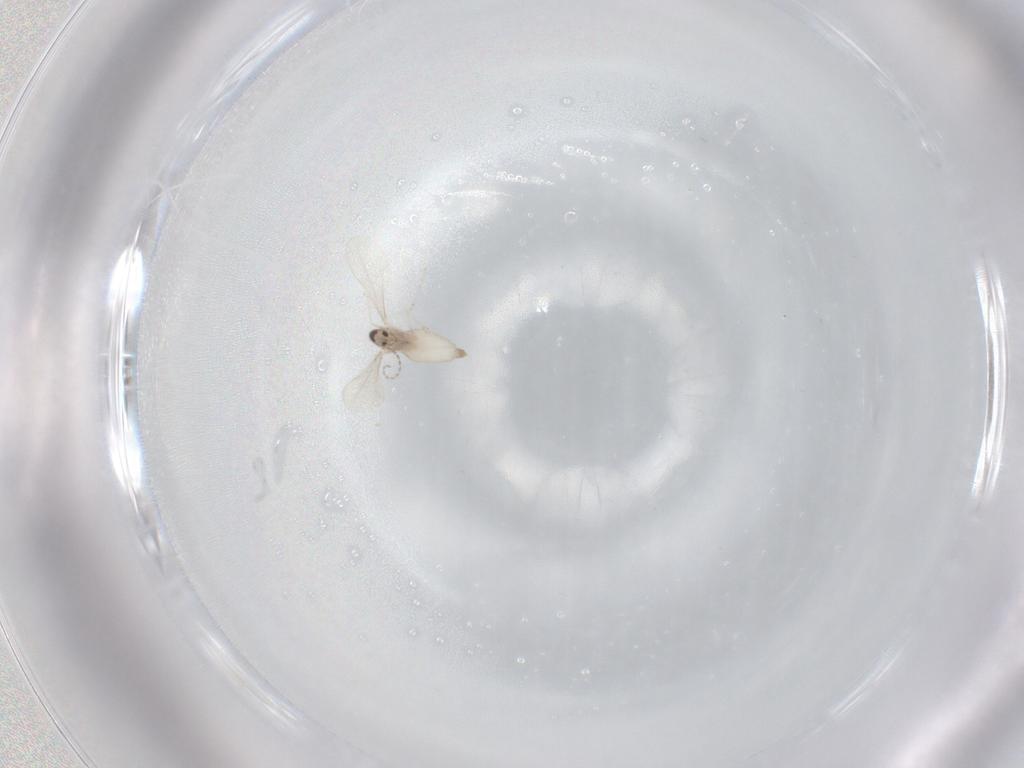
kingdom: Animalia
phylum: Arthropoda
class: Insecta
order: Diptera
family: Cecidomyiidae
